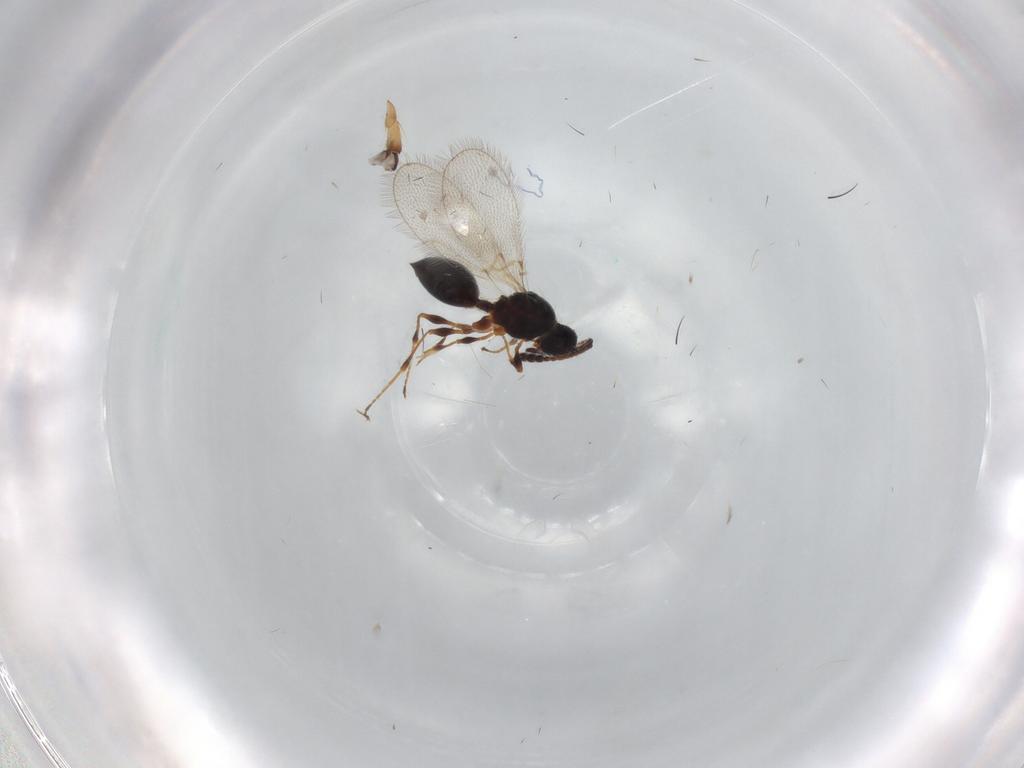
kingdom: Animalia
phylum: Arthropoda
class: Insecta
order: Hymenoptera
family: Diapriidae
